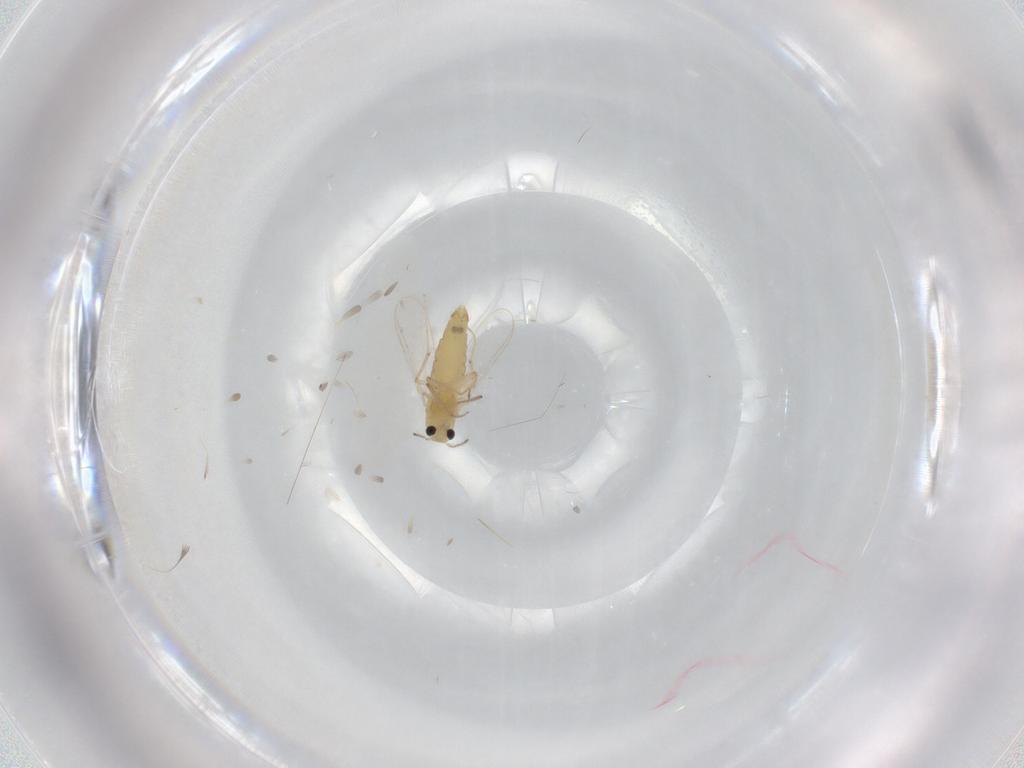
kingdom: Animalia
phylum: Arthropoda
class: Insecta
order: Diptera
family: Chironomidae
